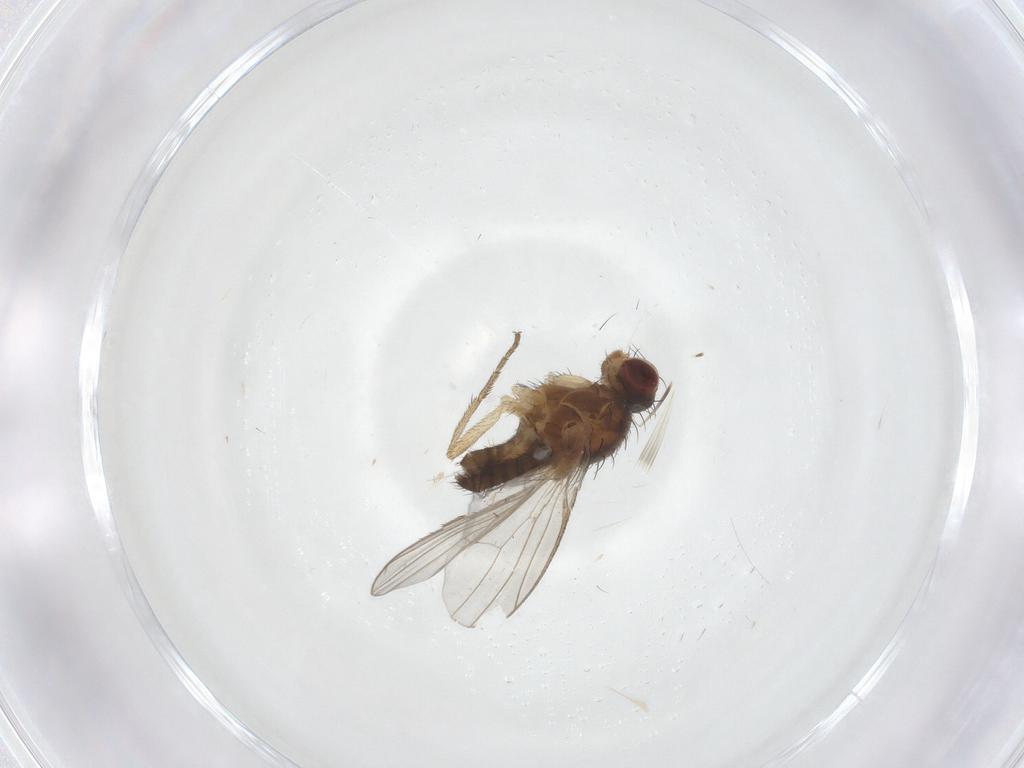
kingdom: Animalia
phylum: Arthropoda
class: Insecta
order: Diptera
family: Heleomyzidae
